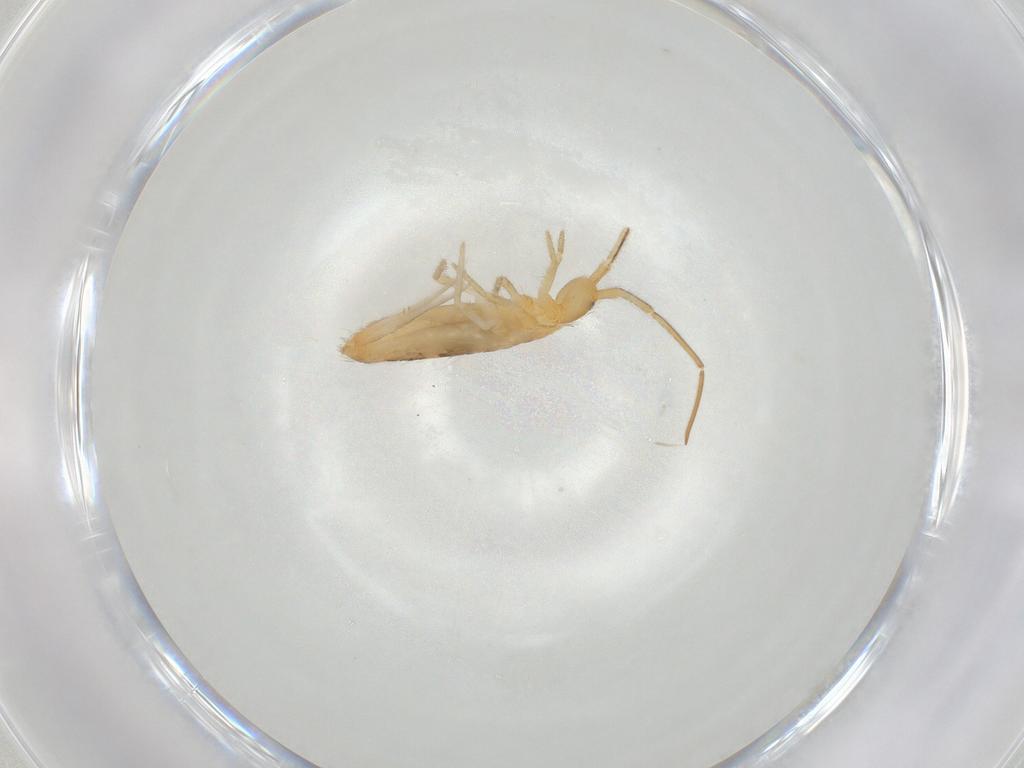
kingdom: Animalia
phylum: Arthropoda
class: Collembola
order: Entomobryomorpha
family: Entomobryidae
